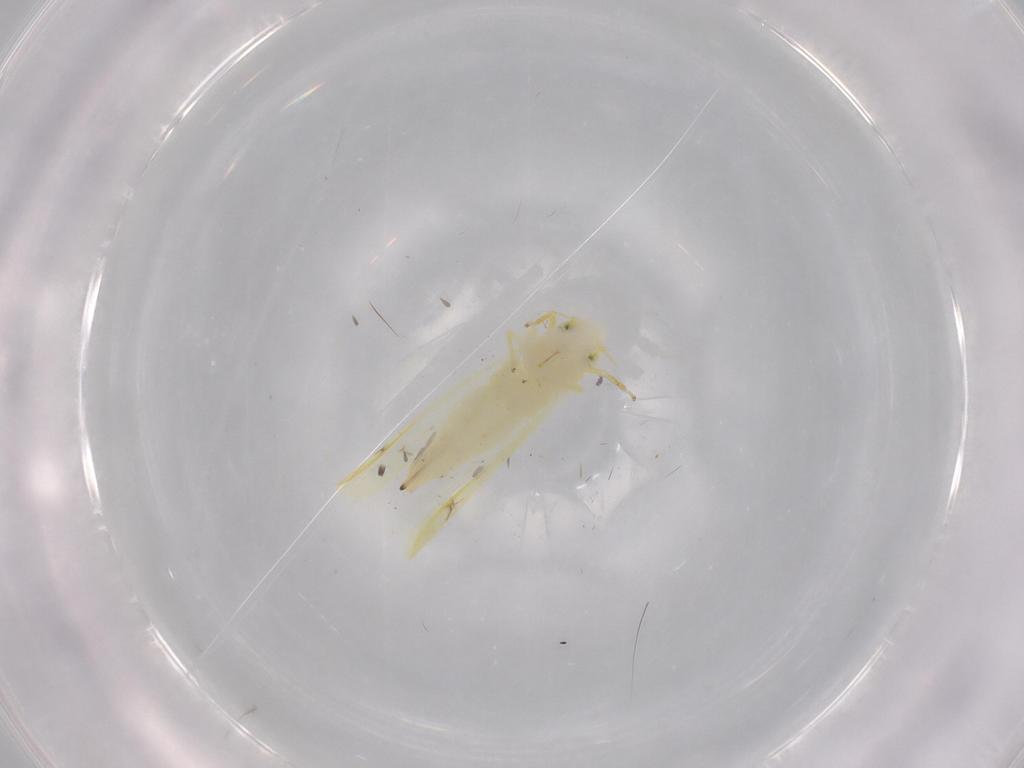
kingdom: Animalia
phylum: Arthropoda
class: Insecta
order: Hemiptera
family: Cicadellidae
